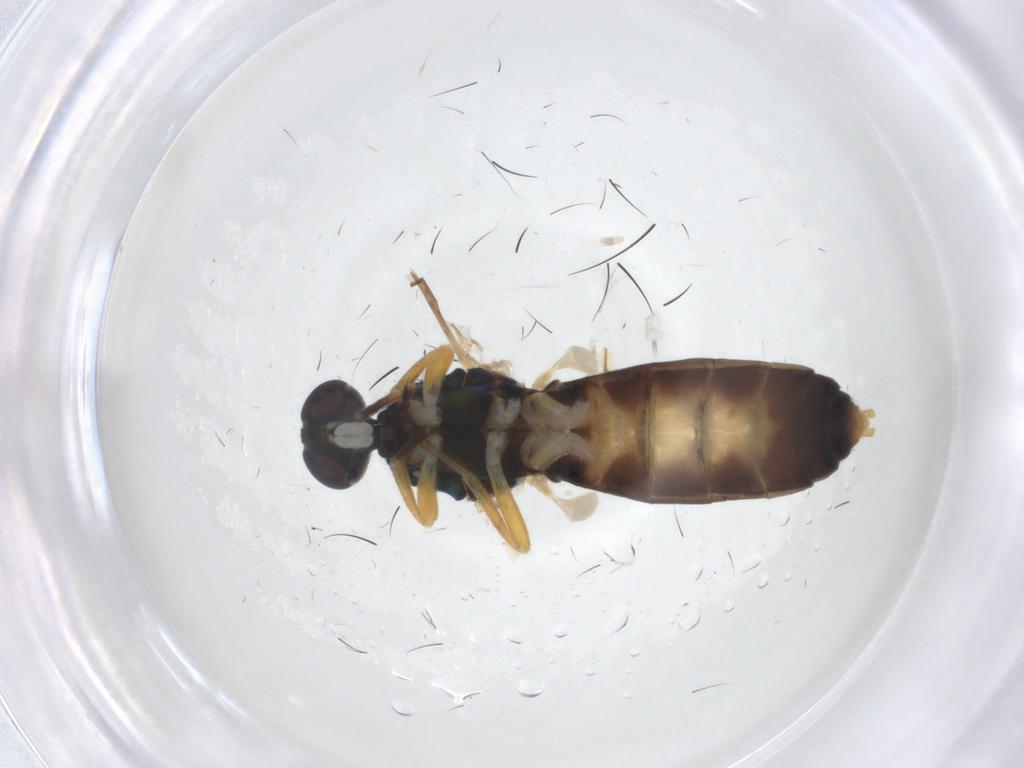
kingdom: Animalia
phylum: Arthropoda
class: Insecta
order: Diptera
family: Stratiomyidae
